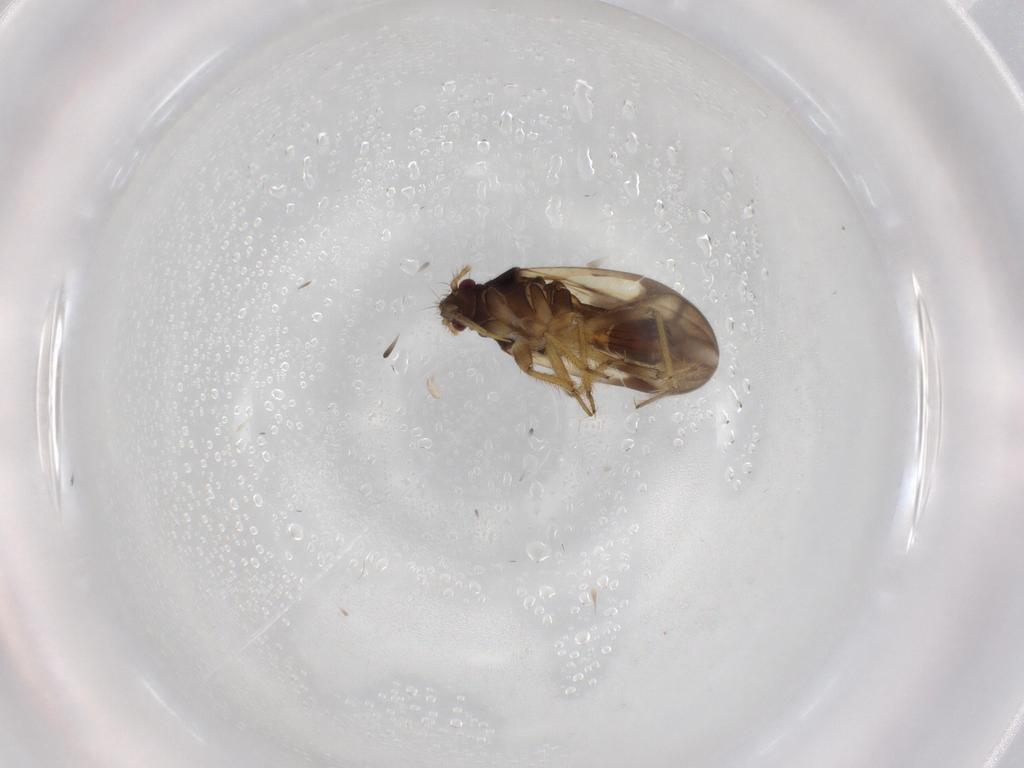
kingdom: Animalia
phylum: Arthropoda
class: Insecta
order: Hemiptera
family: Ceratocombidae
